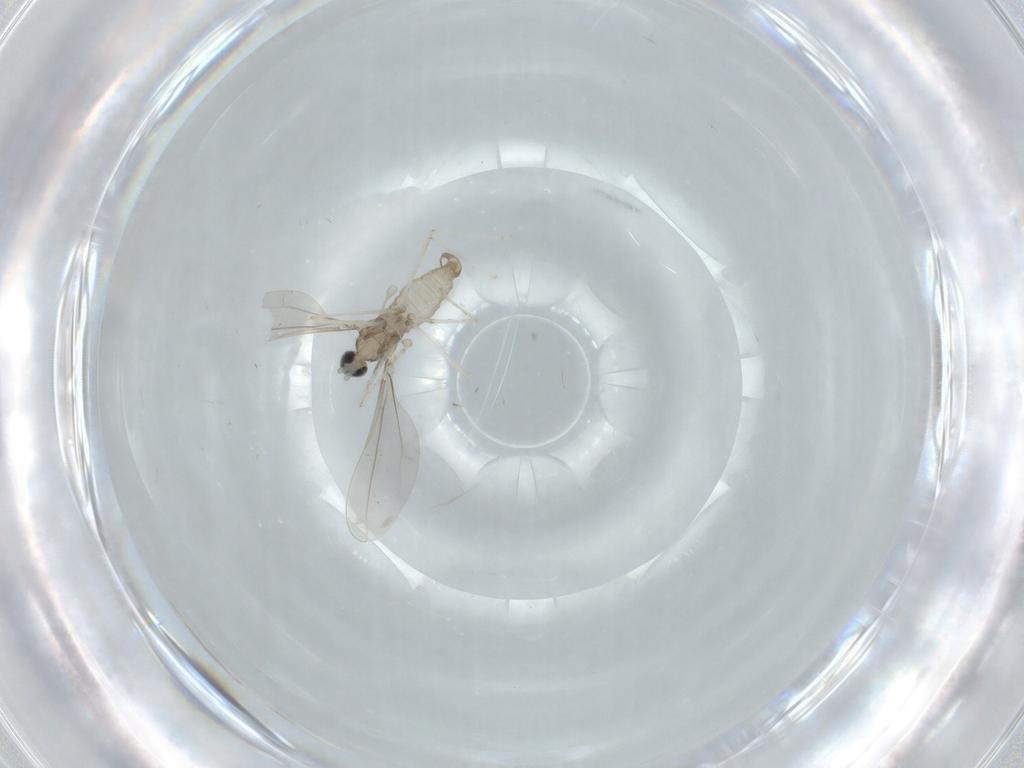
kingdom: Animalia
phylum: Arthropoda
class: Insecta
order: Diptera
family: Cecidomyiidae
